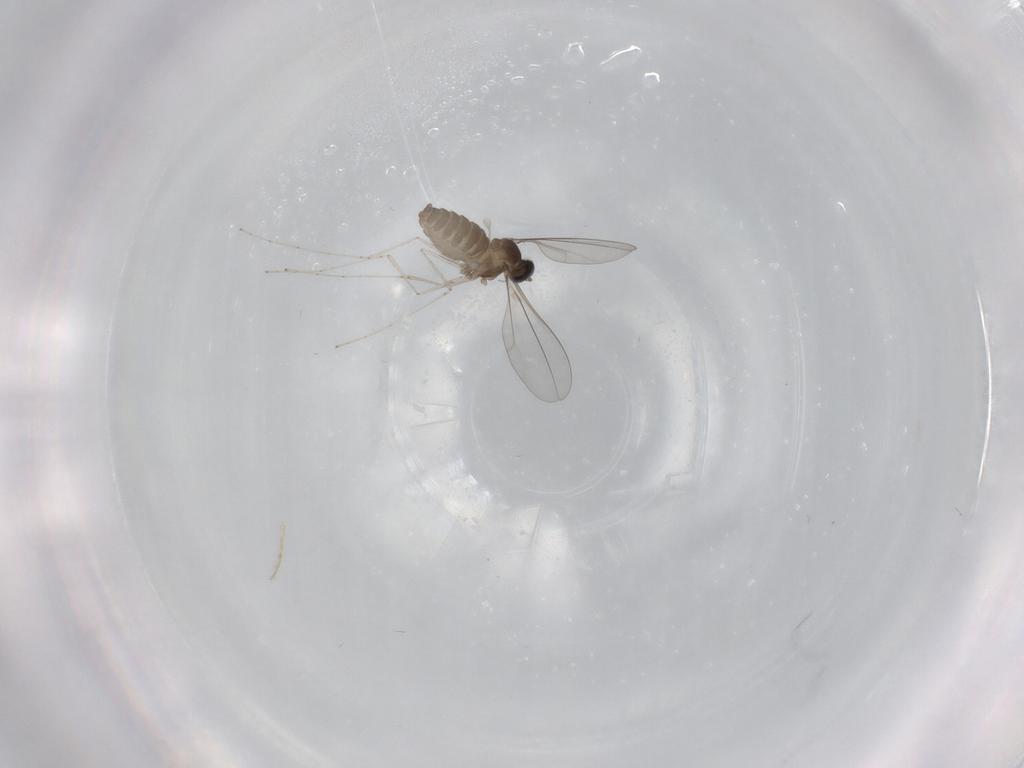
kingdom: Animalia
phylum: Arthropoda
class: Insecta
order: Diptera
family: Cecidomyiidae
